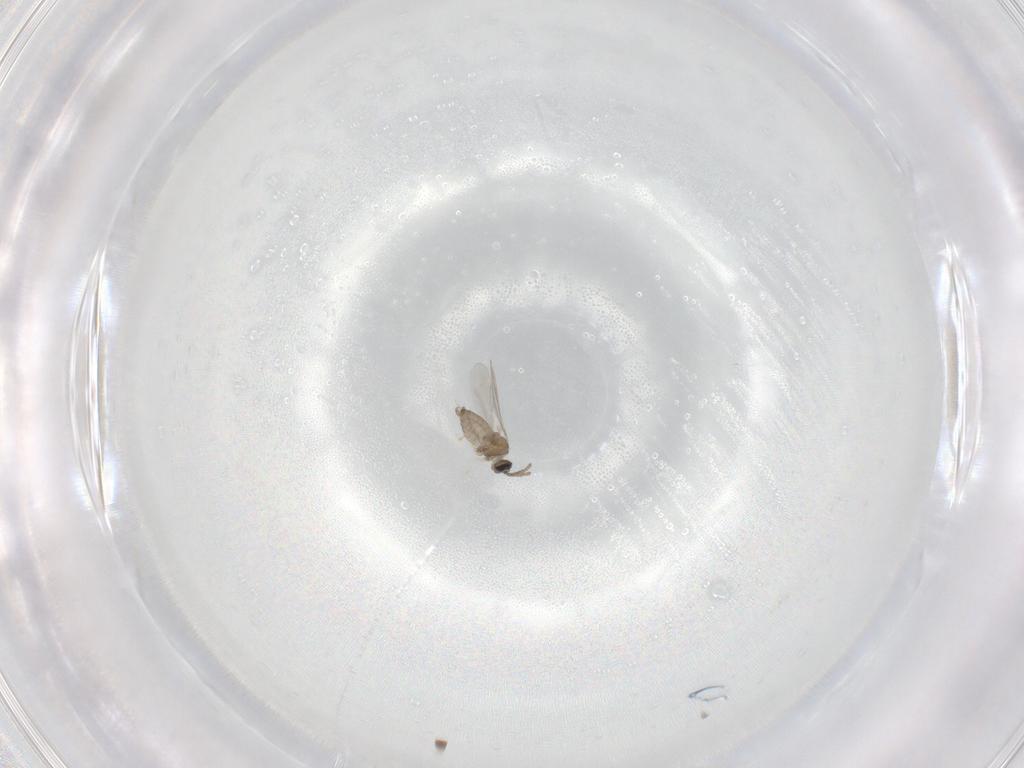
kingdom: Animalia
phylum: Arthropoda
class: Insecta
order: Diptera
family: Cecidomyiidae
